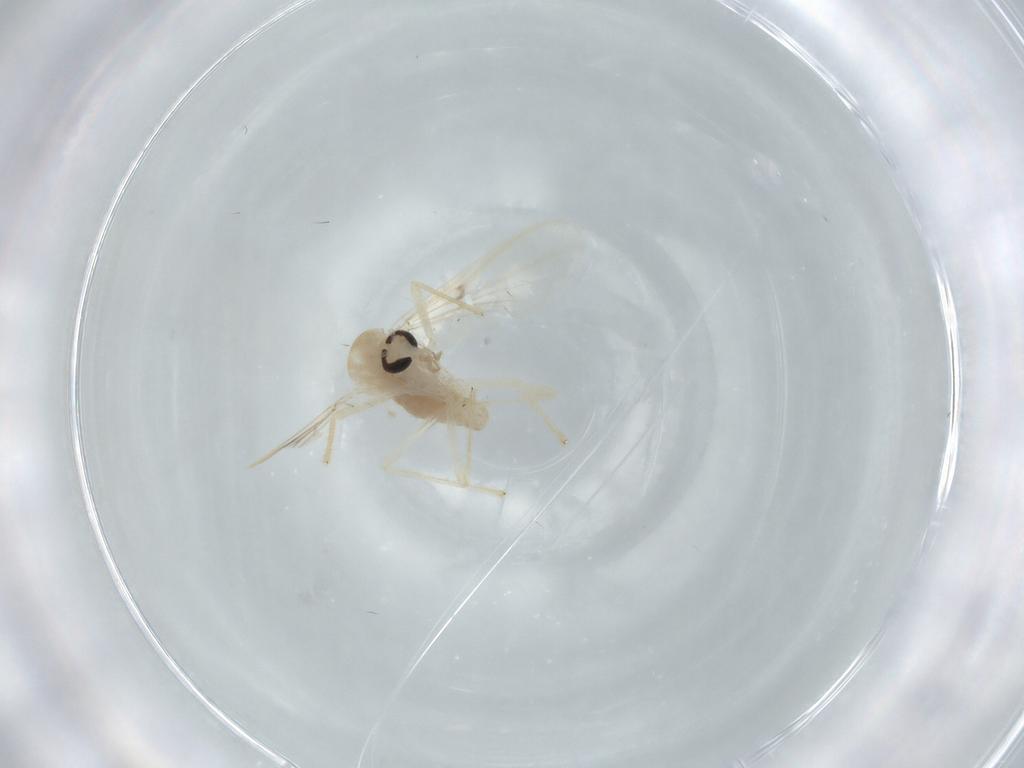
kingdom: Animalia
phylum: Arthropoda
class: Insecta
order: Diptera
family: Chironomidae
